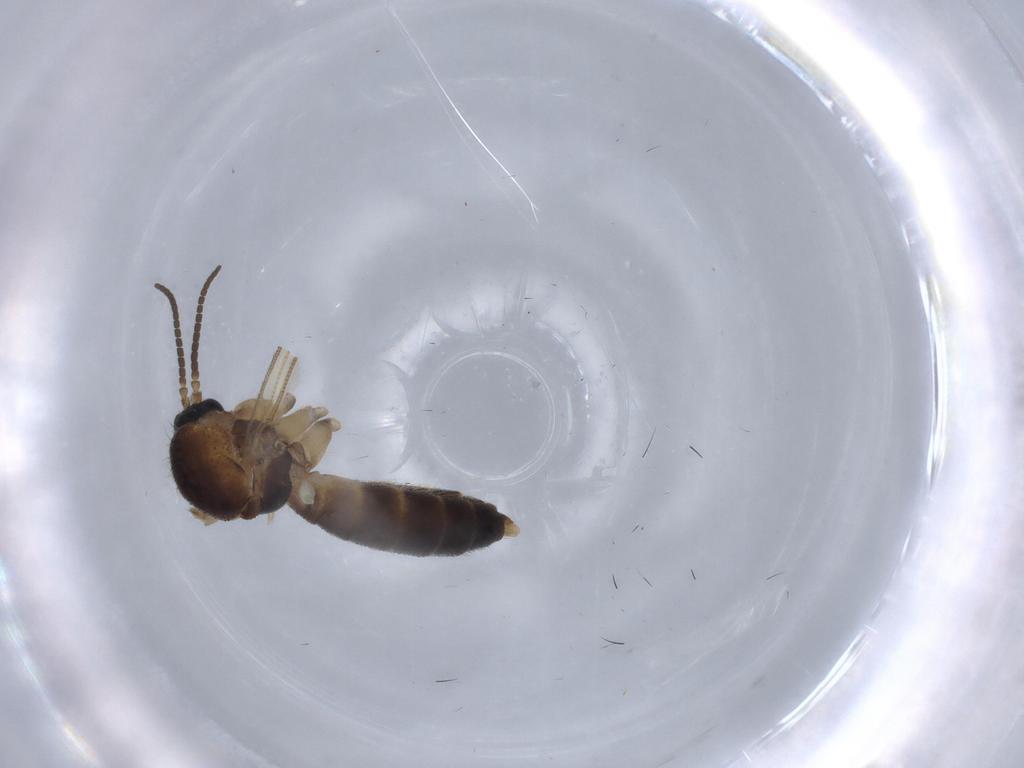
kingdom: Animalia
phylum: Arthropoda
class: Insecta
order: Diptera
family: Mycetophilidae
